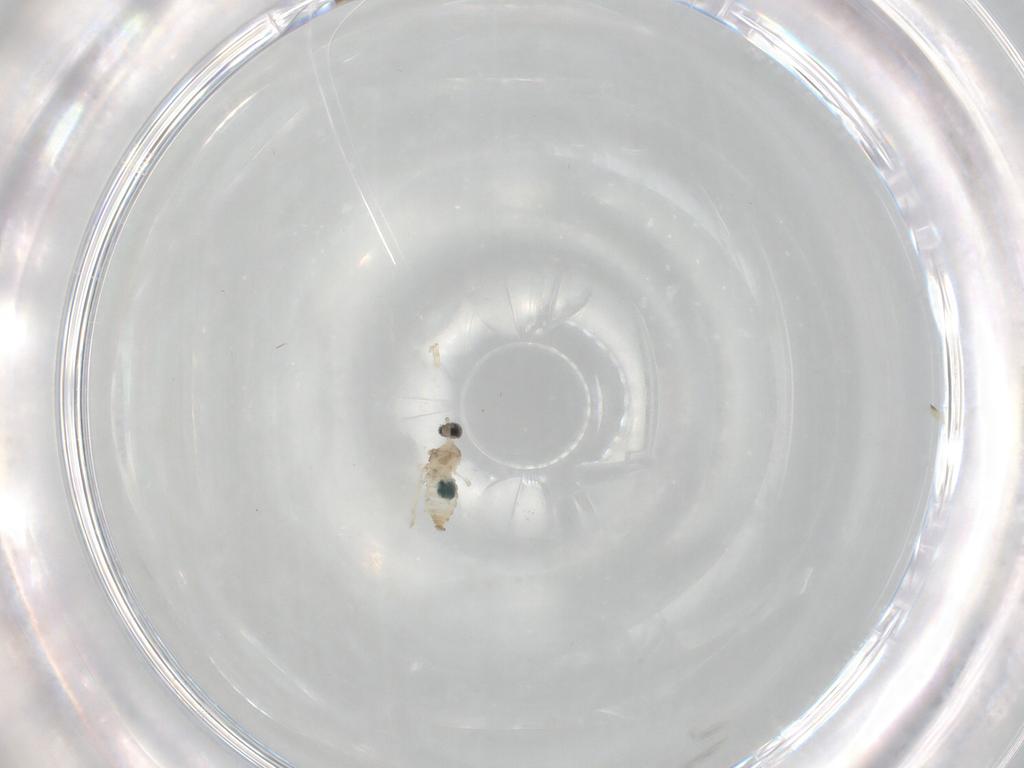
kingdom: Animalia
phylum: Arthropoda
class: Insecta
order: Diptera
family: Cecidomyiidae
